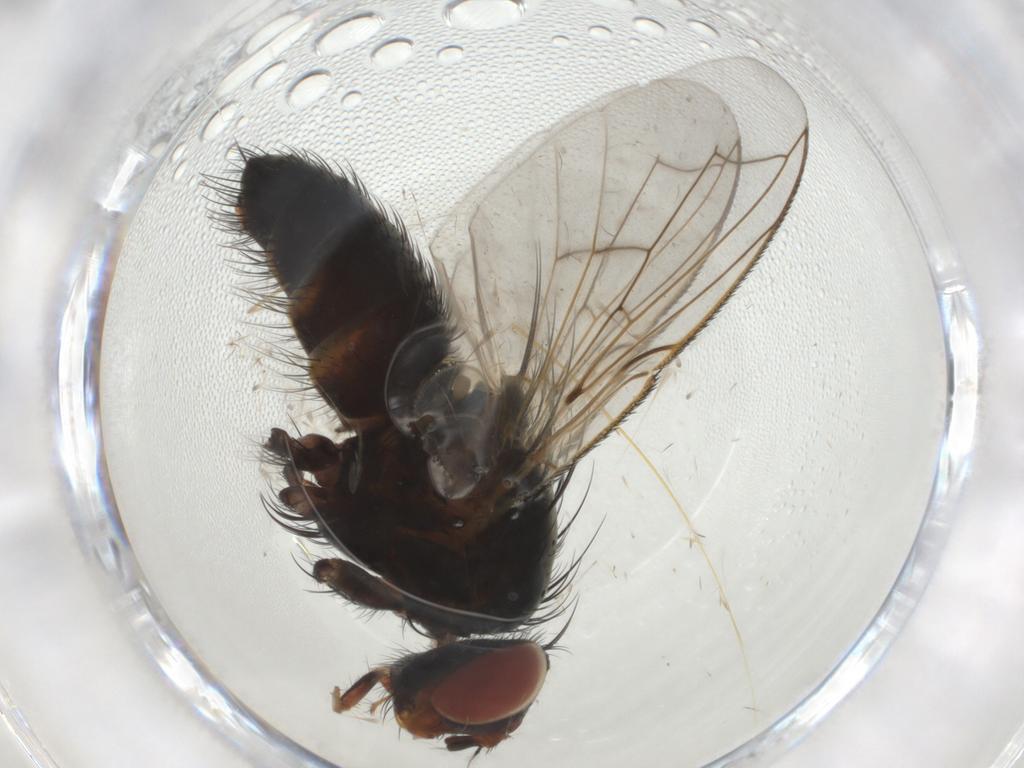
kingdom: Animalia
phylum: Arthropoda
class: Insecta
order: Diptera
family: Tachinidae
